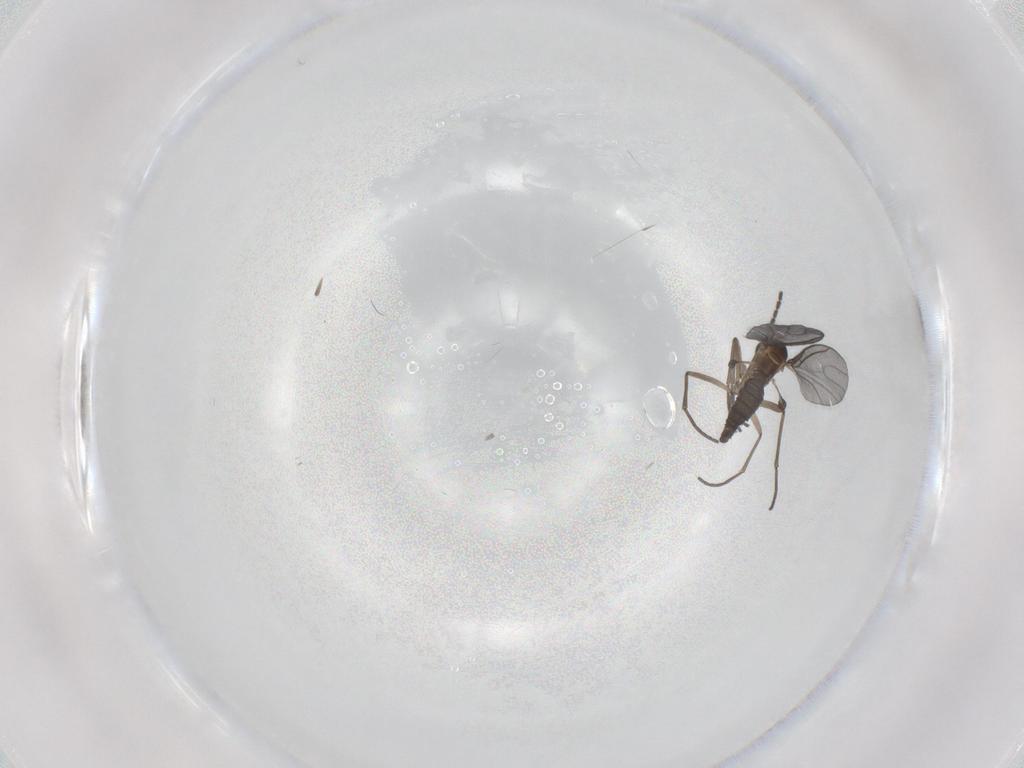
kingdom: Animalia
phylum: Arthropoda
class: Insecta
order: Diptera
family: Sciaridae
